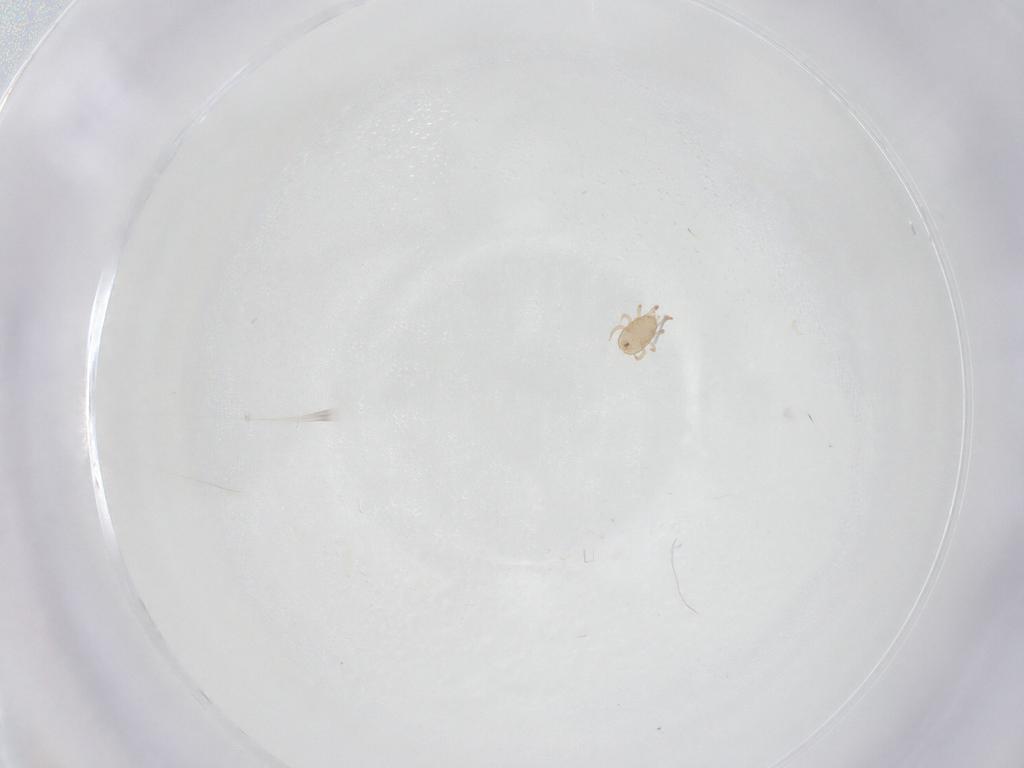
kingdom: Animalia
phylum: Arthropoda
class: Arachnida
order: Mesostigmata
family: Ameroseiidae
